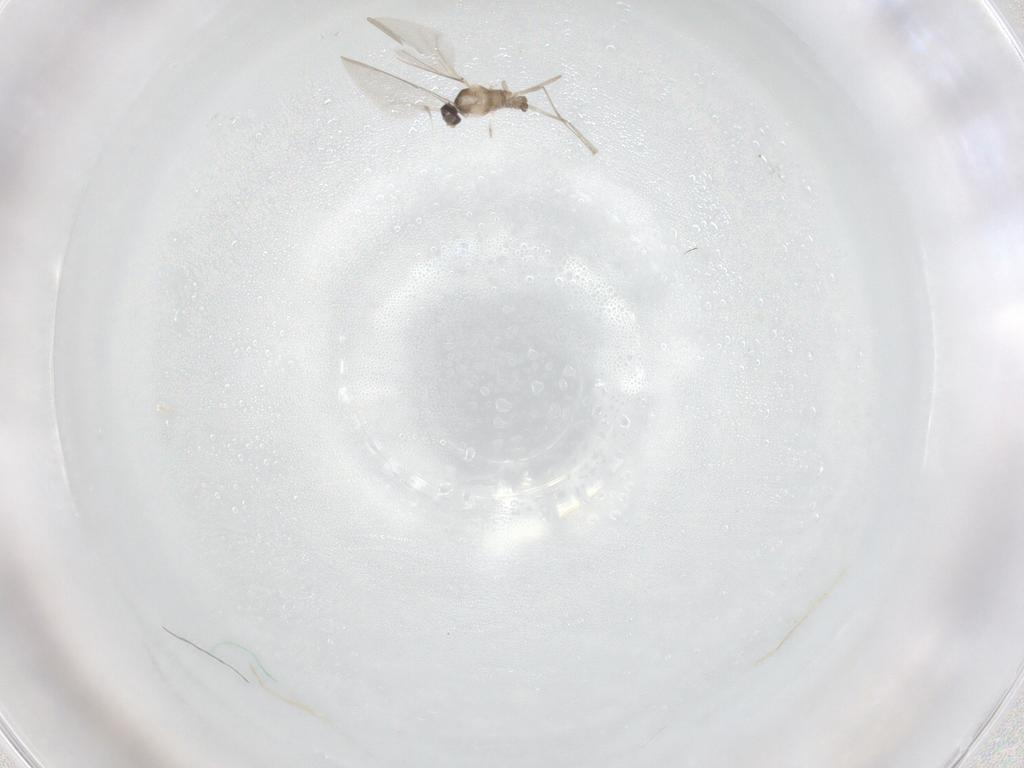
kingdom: Animalia
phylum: Arthropoda
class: Insecta
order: Diptera
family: Cecidomyiidae
